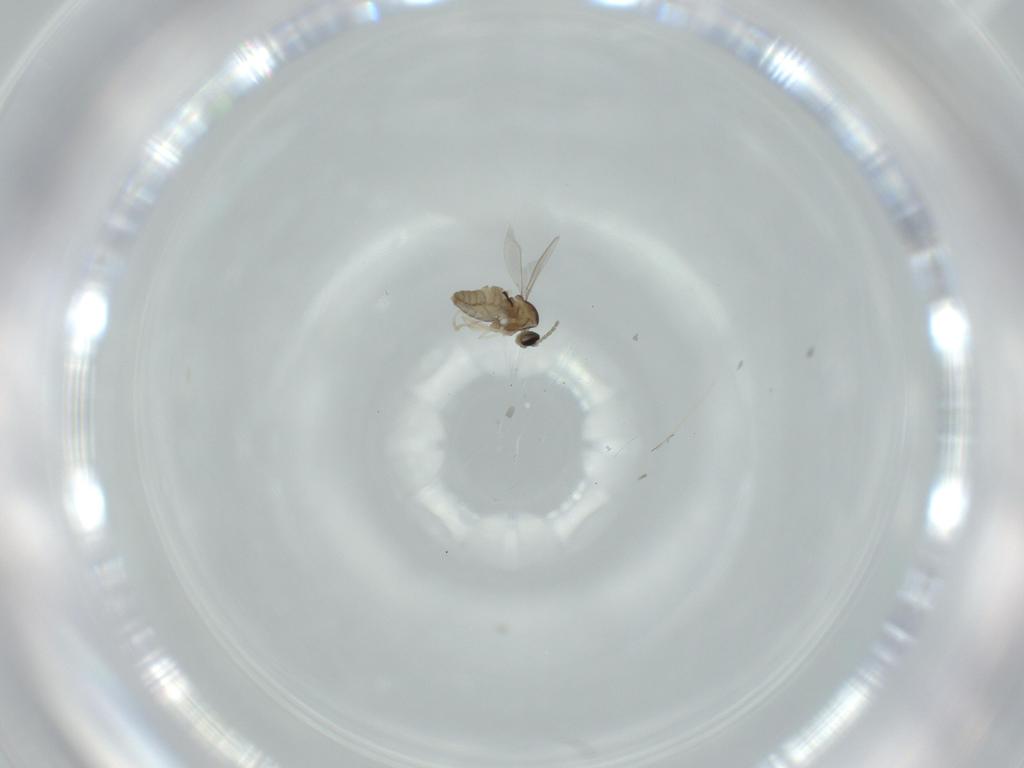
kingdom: Animalia
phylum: Arthropoda
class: Insecta
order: Diptera
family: Cecidomyiidae
